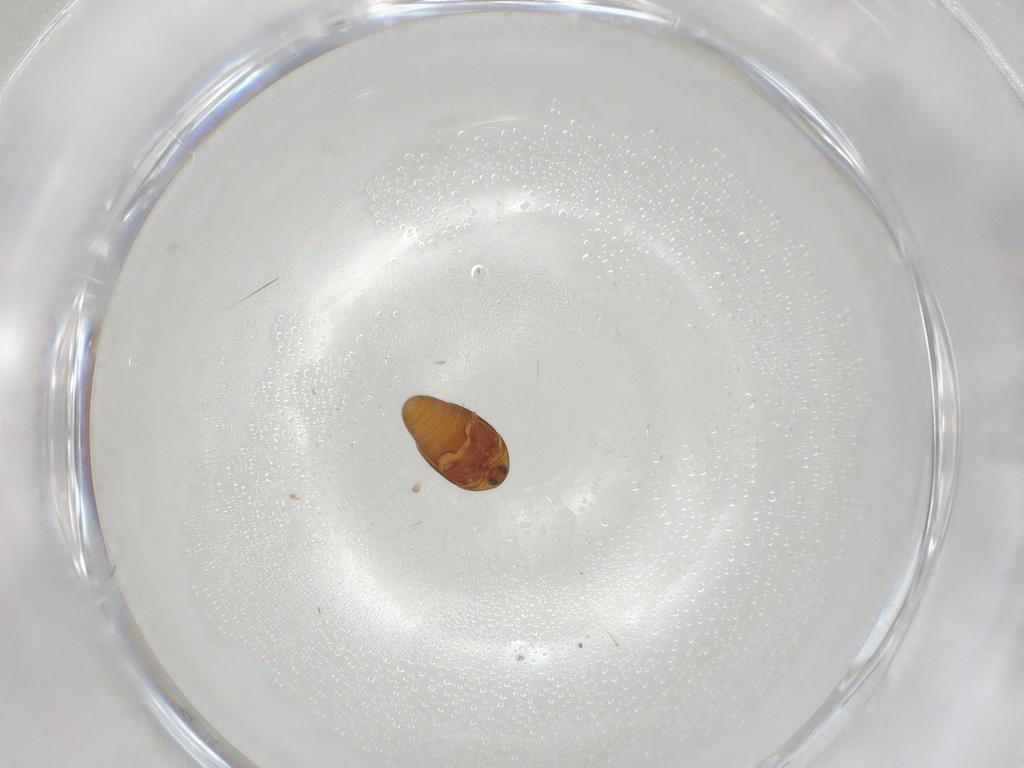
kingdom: Animalia
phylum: Arthropoda
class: Insecta
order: Coleoptera
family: Corylophidae
